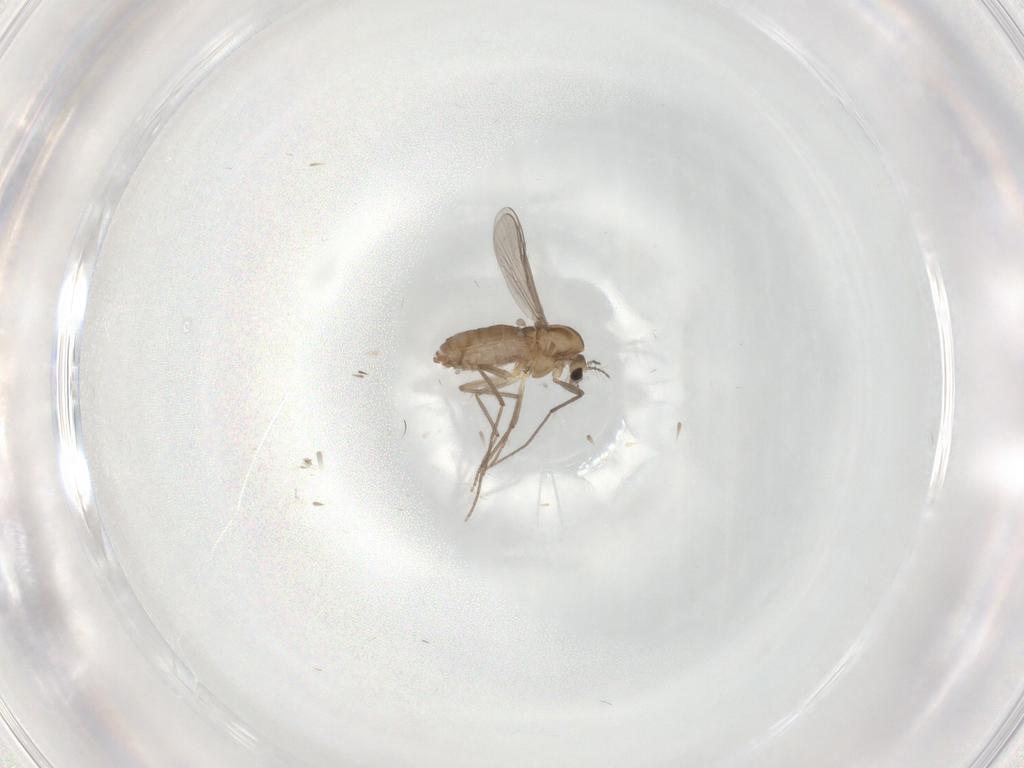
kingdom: Animalia
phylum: Arthropoda
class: Insecta
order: Diptera
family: Chironomidae
